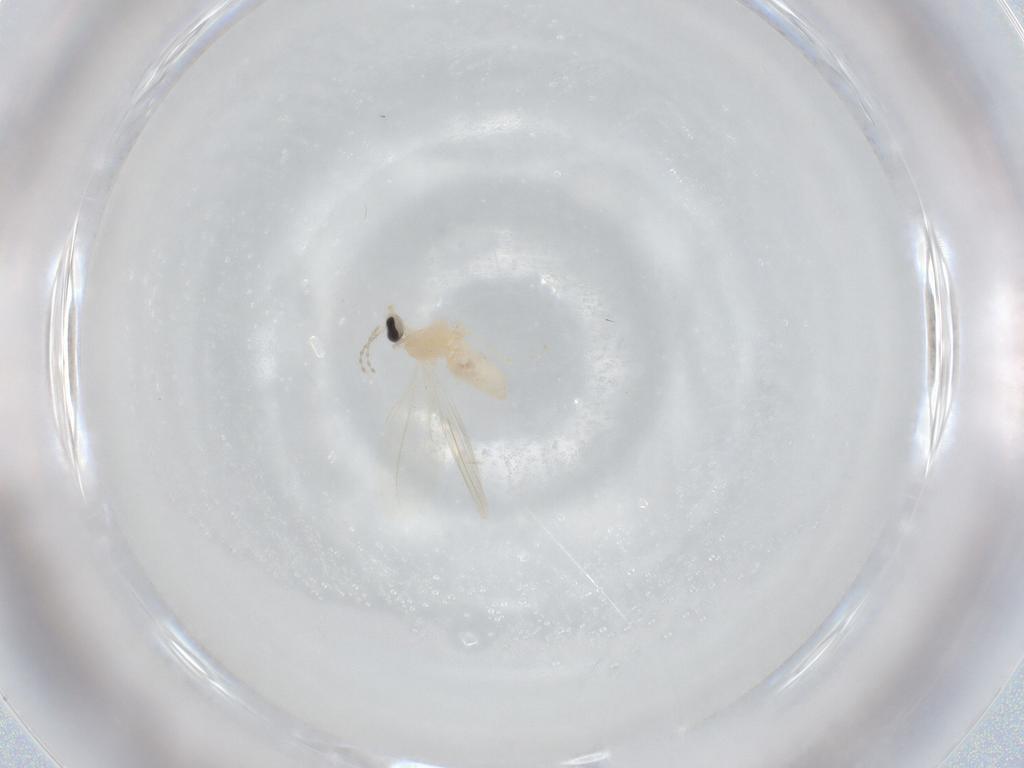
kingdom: Animalia
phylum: Arthropoda
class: Insecta
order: Diptera
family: Cecidomyiidae
